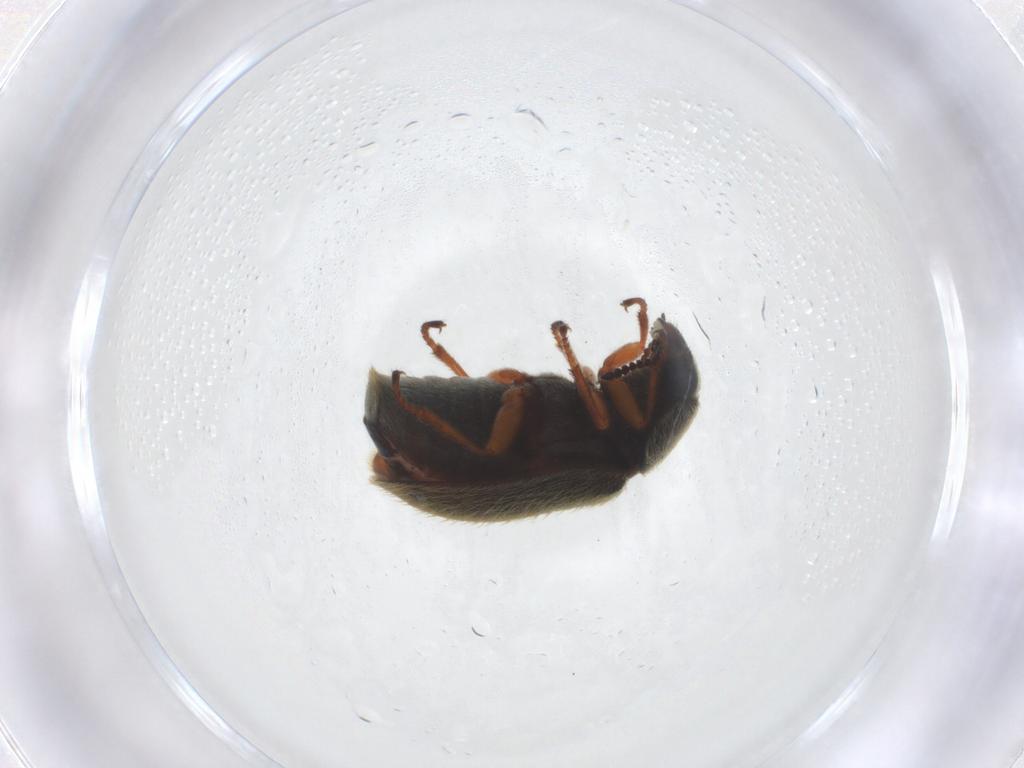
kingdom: Animalia
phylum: Arthropoda
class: Insecta
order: Coleoptera
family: Melyridae
